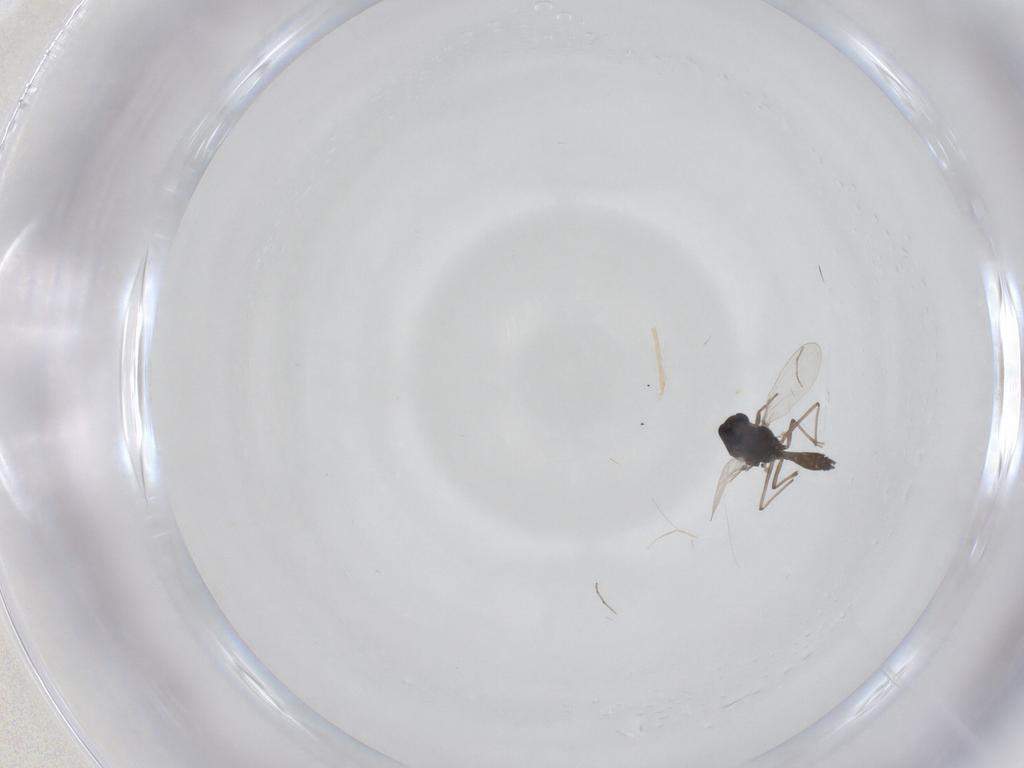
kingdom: Animalia
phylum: Arthropoda
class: Insecta
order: Diptera
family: Chironomidae
